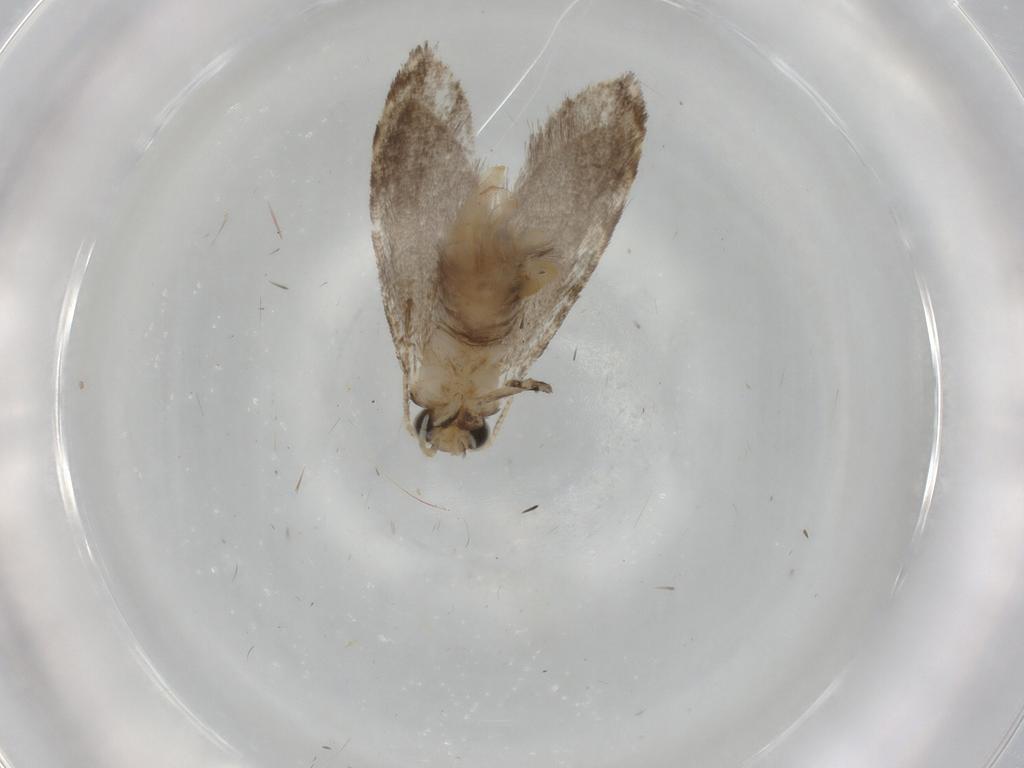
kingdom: Animalia
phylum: Arthropoda
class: Insecta
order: Lepidoptera
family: Tineidae
